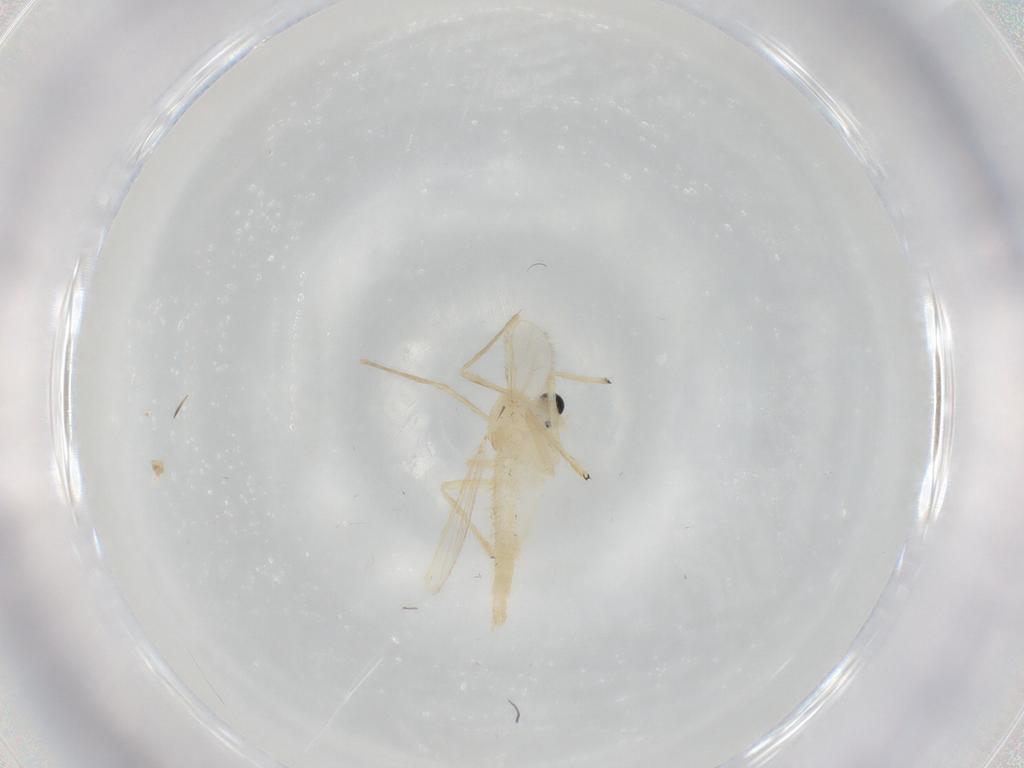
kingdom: Animalia
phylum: Arthropoda
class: Insecta
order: Diptera
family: Chironomidae
